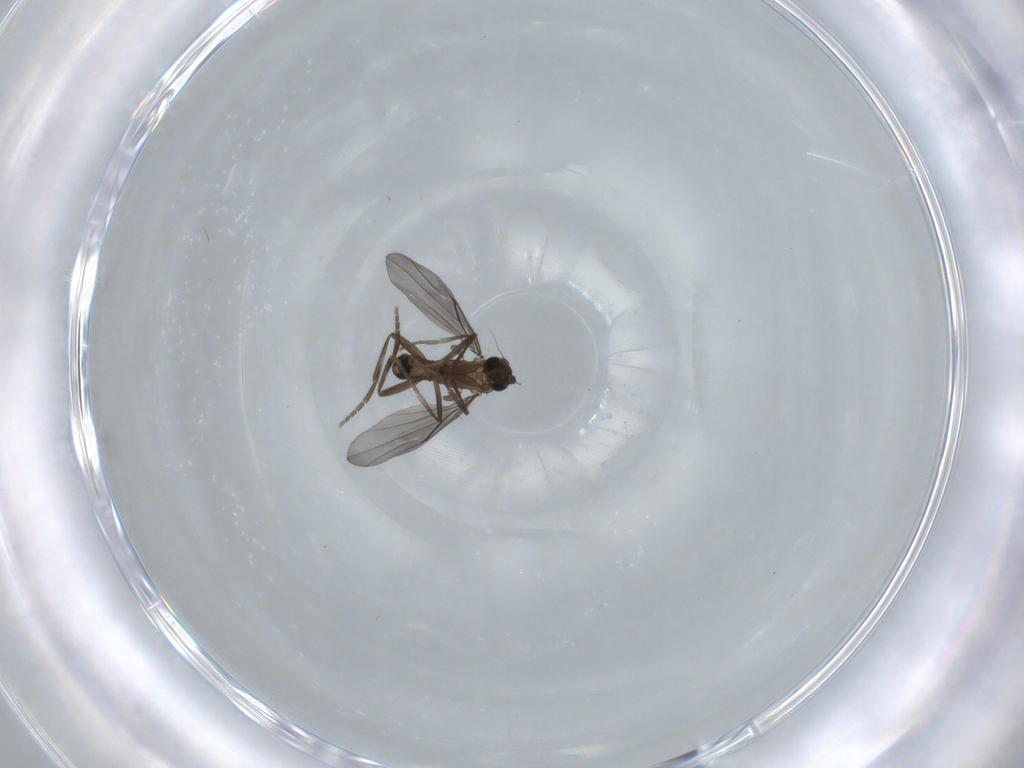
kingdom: Animalia
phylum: Arthropoda
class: Insecta
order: Diptera
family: Phoridae
